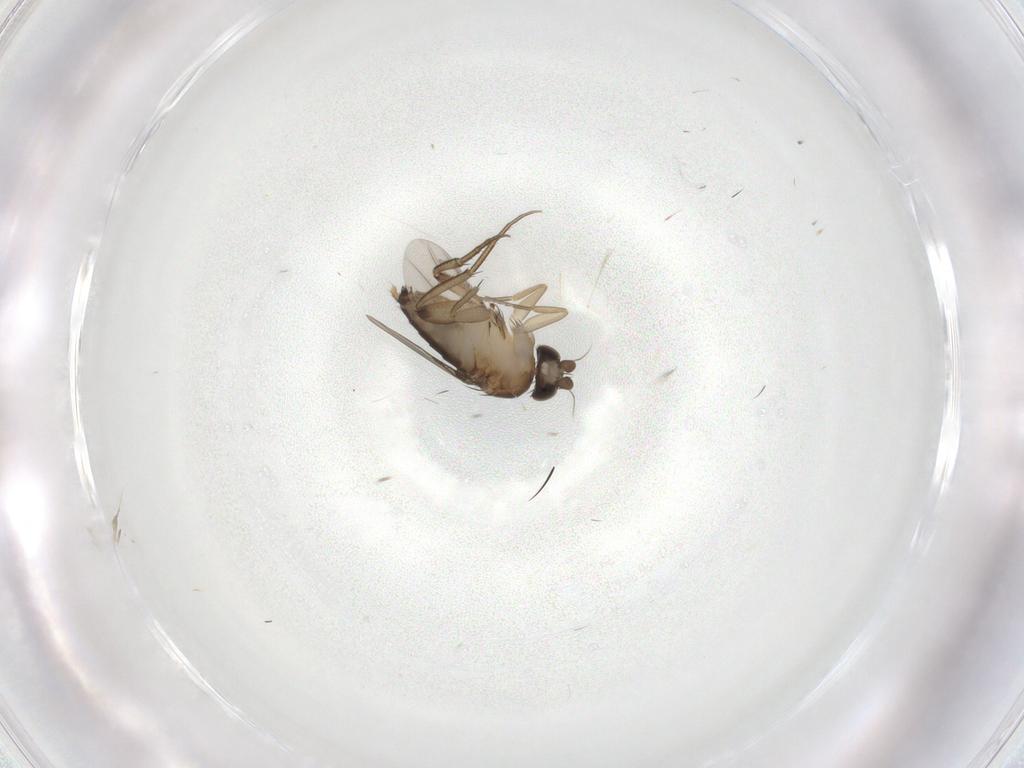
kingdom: Animalia
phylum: Arthropoda
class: Insecta
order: Diptera
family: Phoridae
